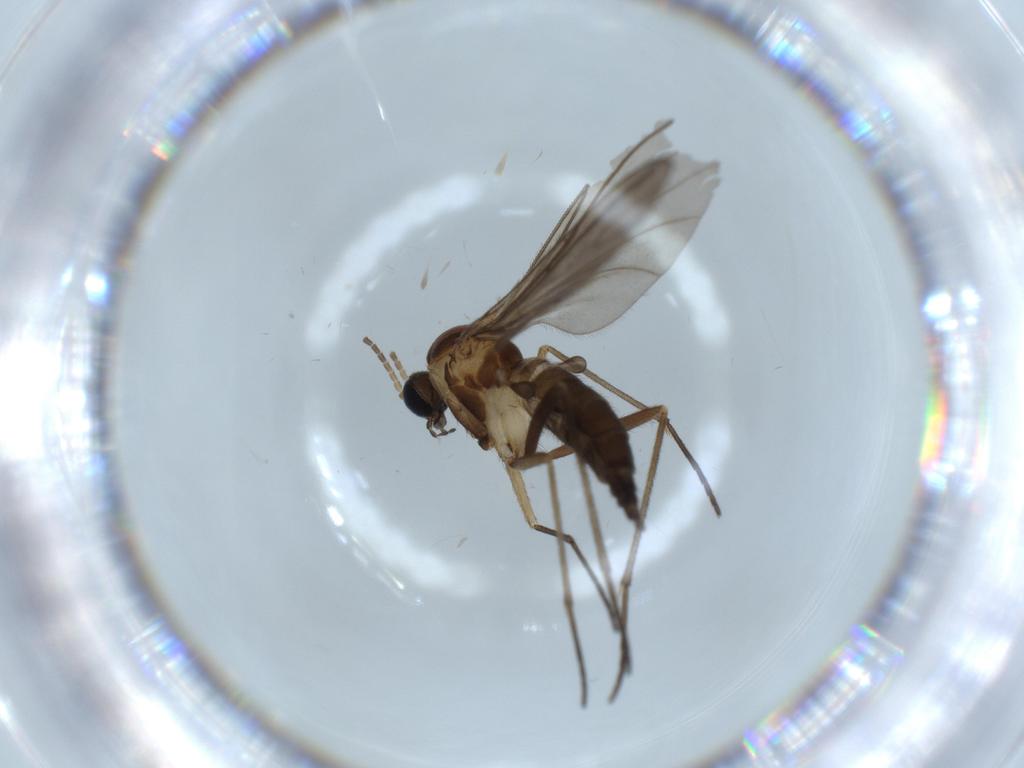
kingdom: Animalia
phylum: Arthropoda
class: Insecta
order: Diptera
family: Sciaridae
